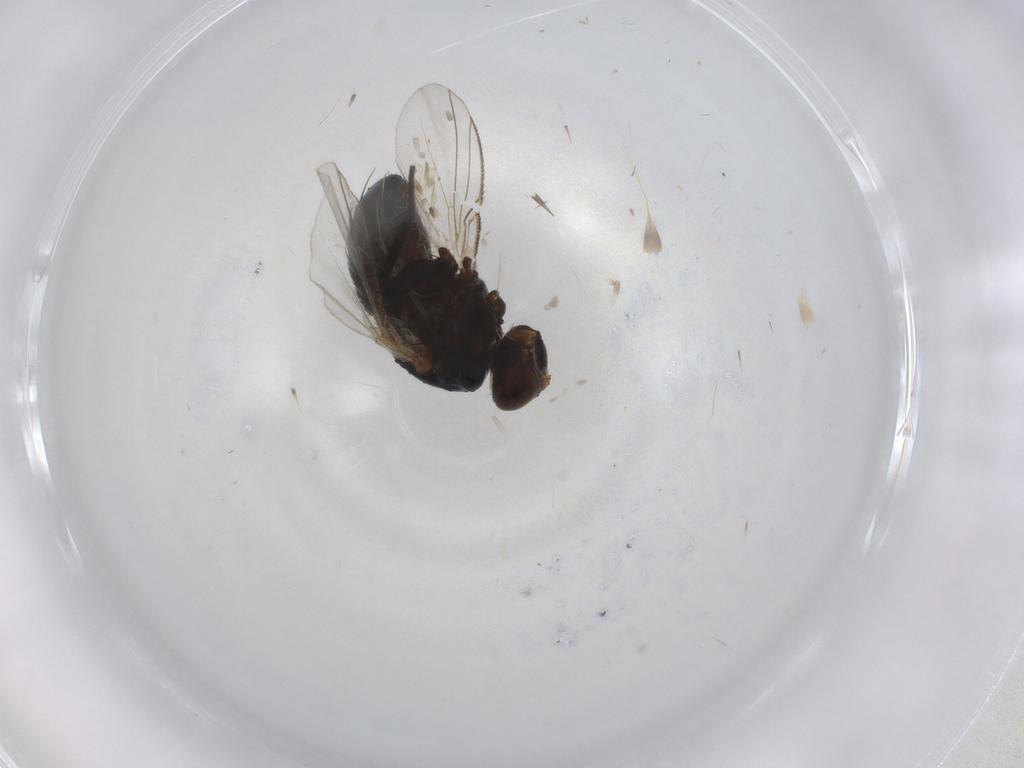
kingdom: Animalia
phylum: Arthropoda
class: Insecta
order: Diptera
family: Tachinidae
